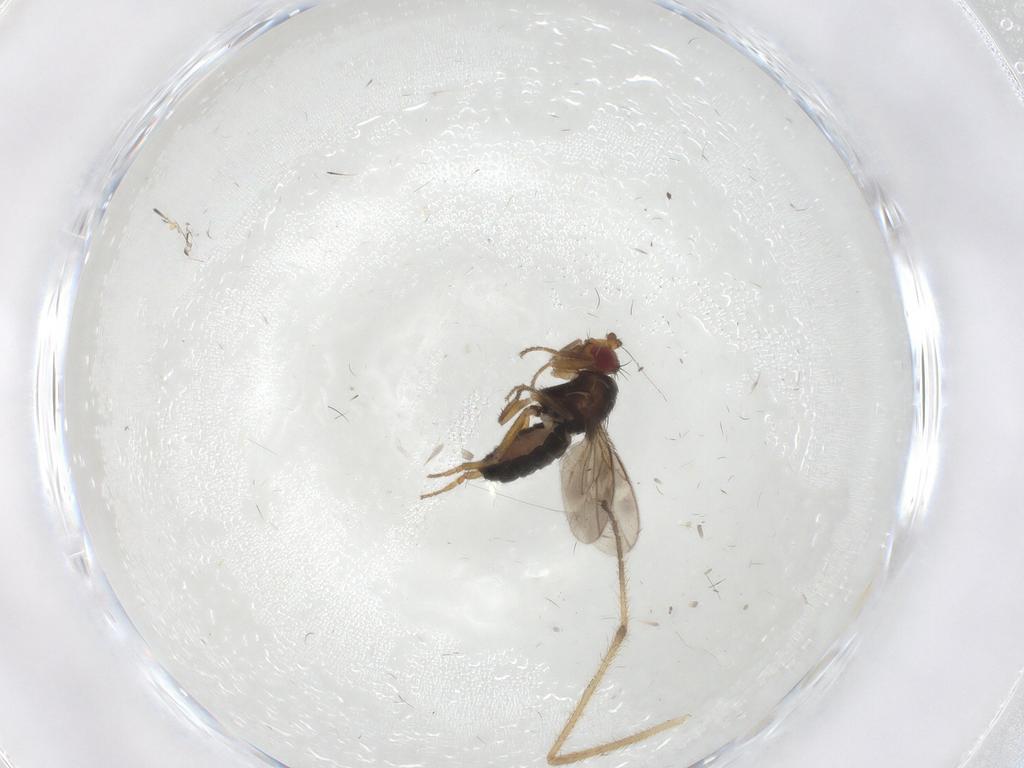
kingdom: Animalia
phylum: Arthropoda
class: Insecta
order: Diptera
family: Sphaeroceridae
